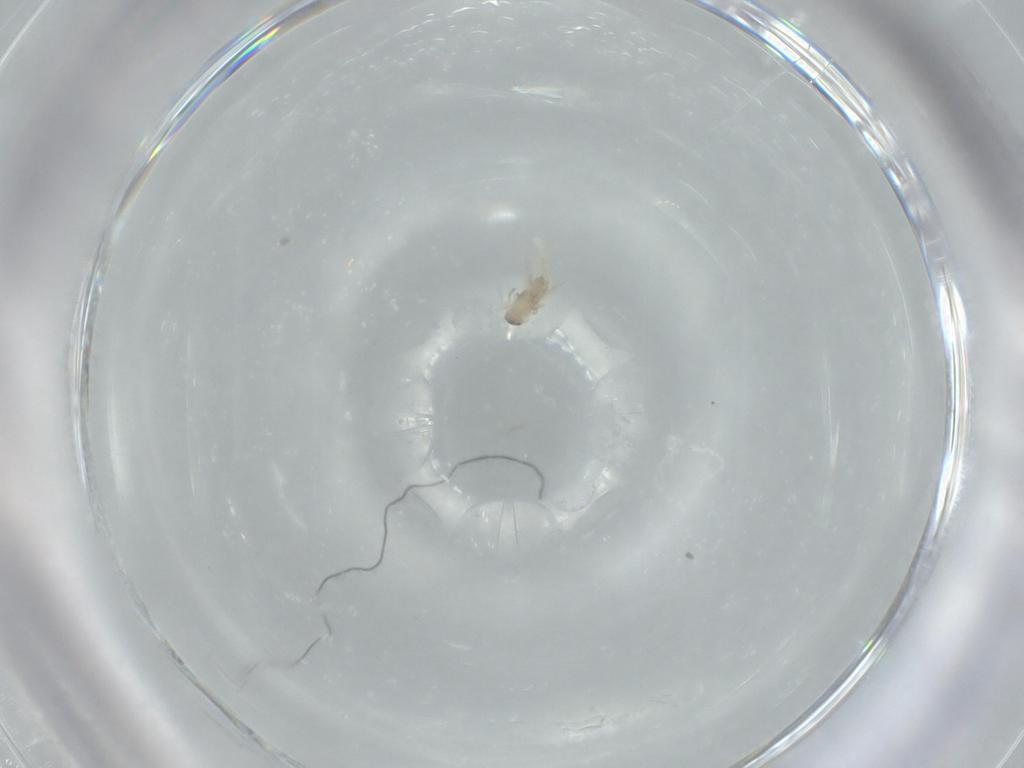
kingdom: Animalia
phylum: Arthropoda
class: Insecta
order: Diptera
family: Cecidomyiidae
